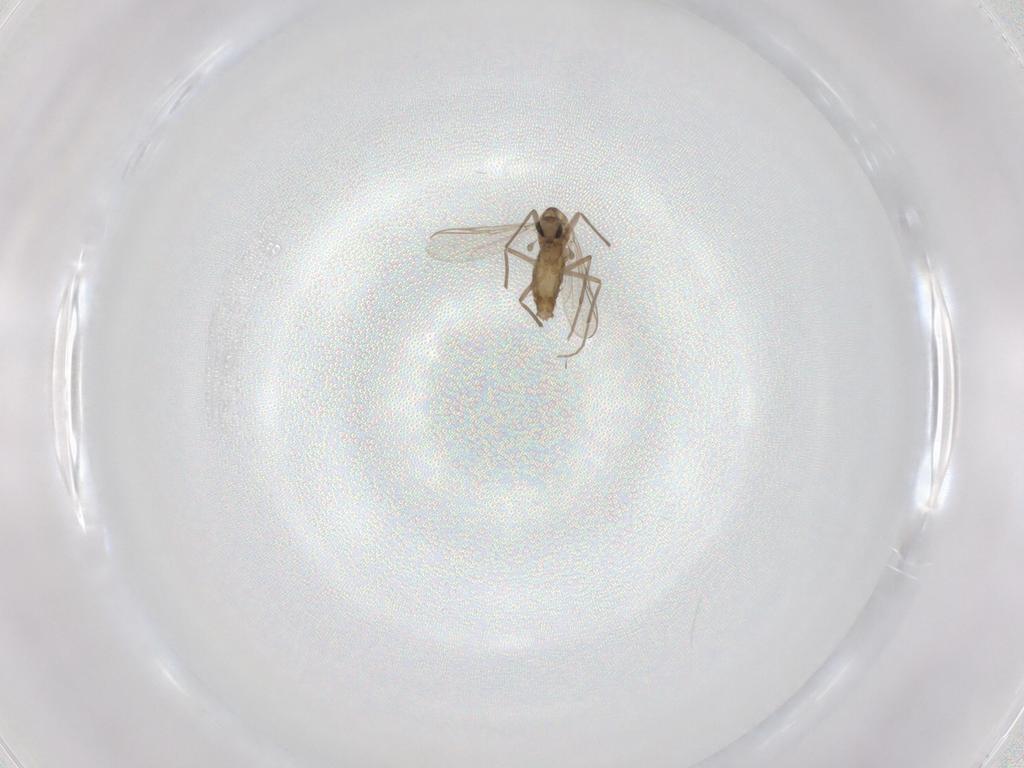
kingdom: Animalia
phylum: Arthropoda
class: Insecta
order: Diptera
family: Chironomidae
